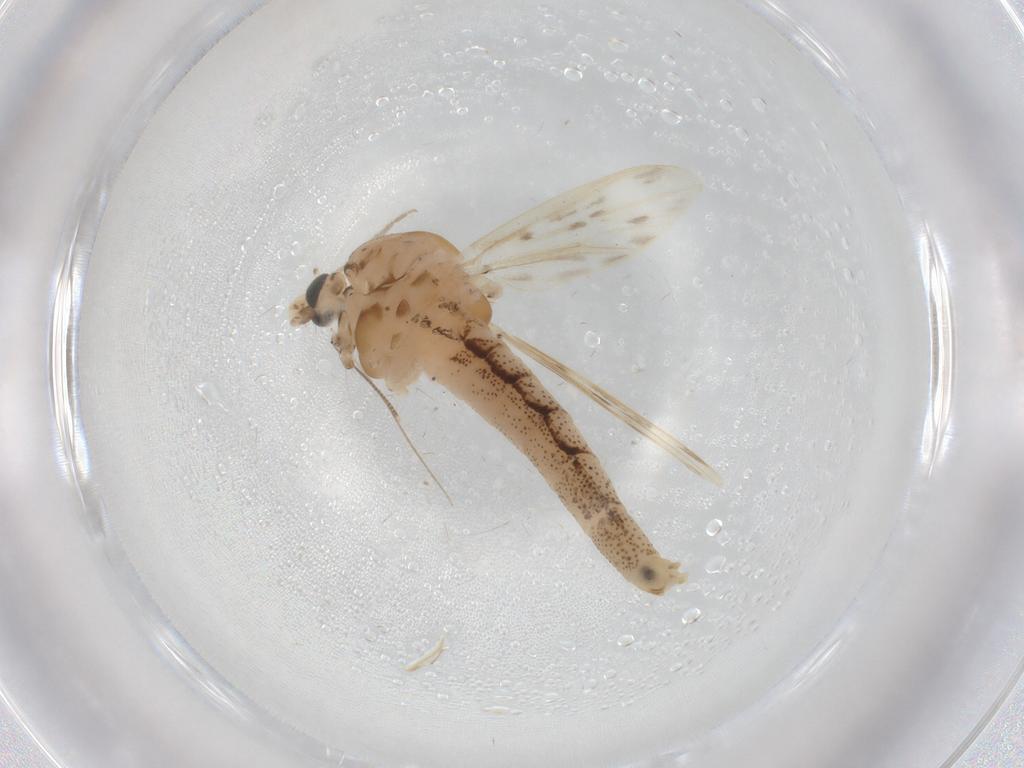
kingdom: Animalia
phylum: Arthropoda
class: Insecta
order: Diptera
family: Chaoboridae
